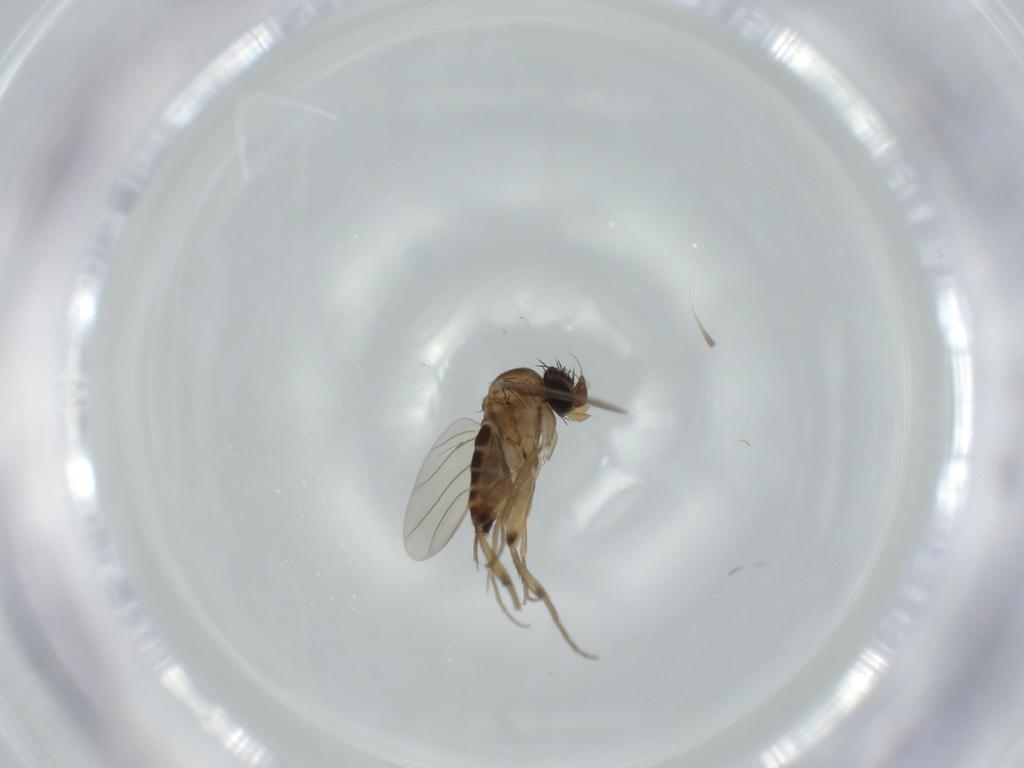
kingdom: Animalia
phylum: Arthropoda
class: Insecta
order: Diptera
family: Phoridae
